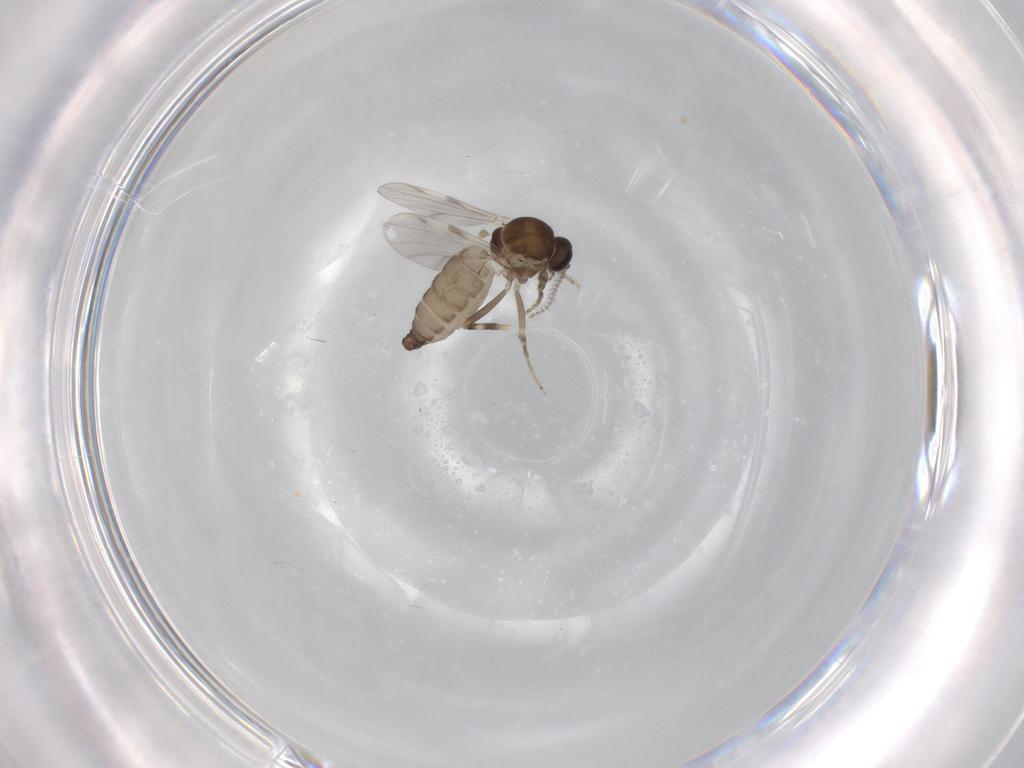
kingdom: Animalia
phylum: Arthropoda
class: Insecta
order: Diptera
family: Ceratopogonidae
